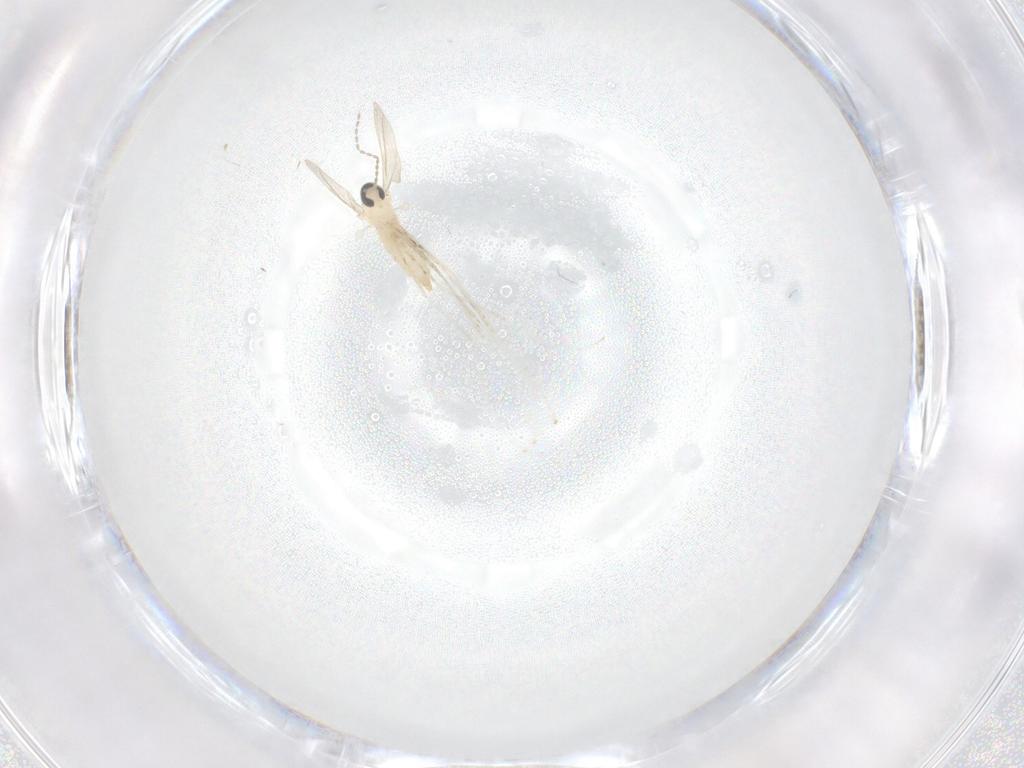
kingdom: Animalia
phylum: Arthropoda
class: Insecta
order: Diptera
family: Cecidomyiidae
